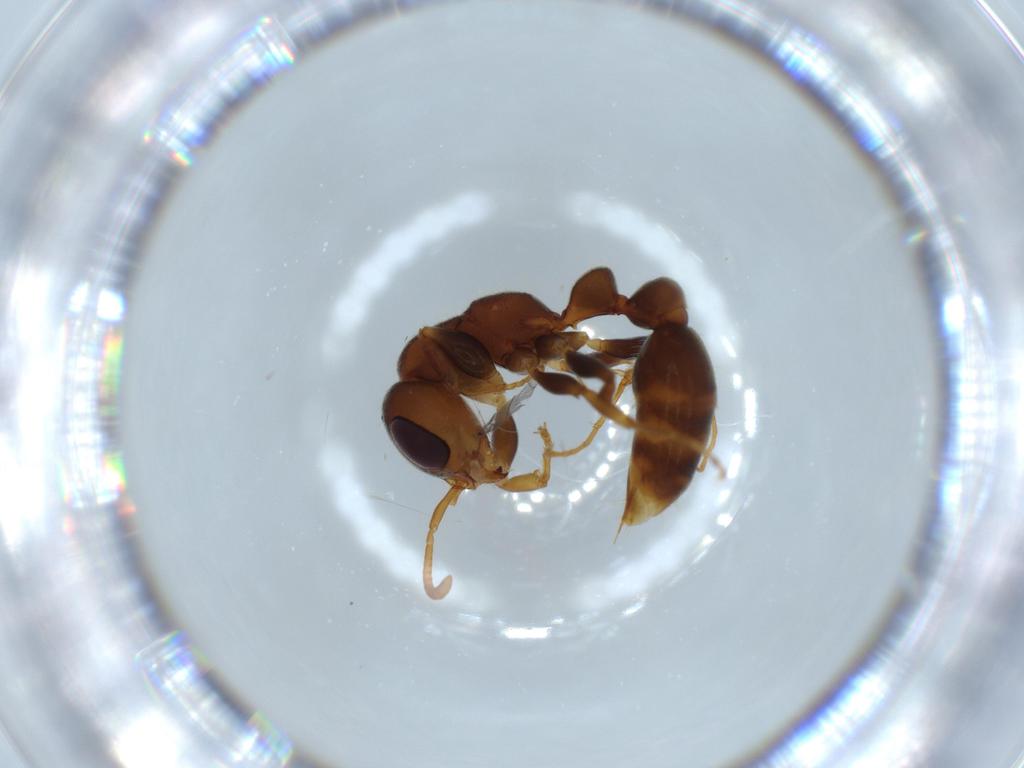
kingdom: Animalia
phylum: Arthropoda
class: Insecta
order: Hymenoptera
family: Formicidae
